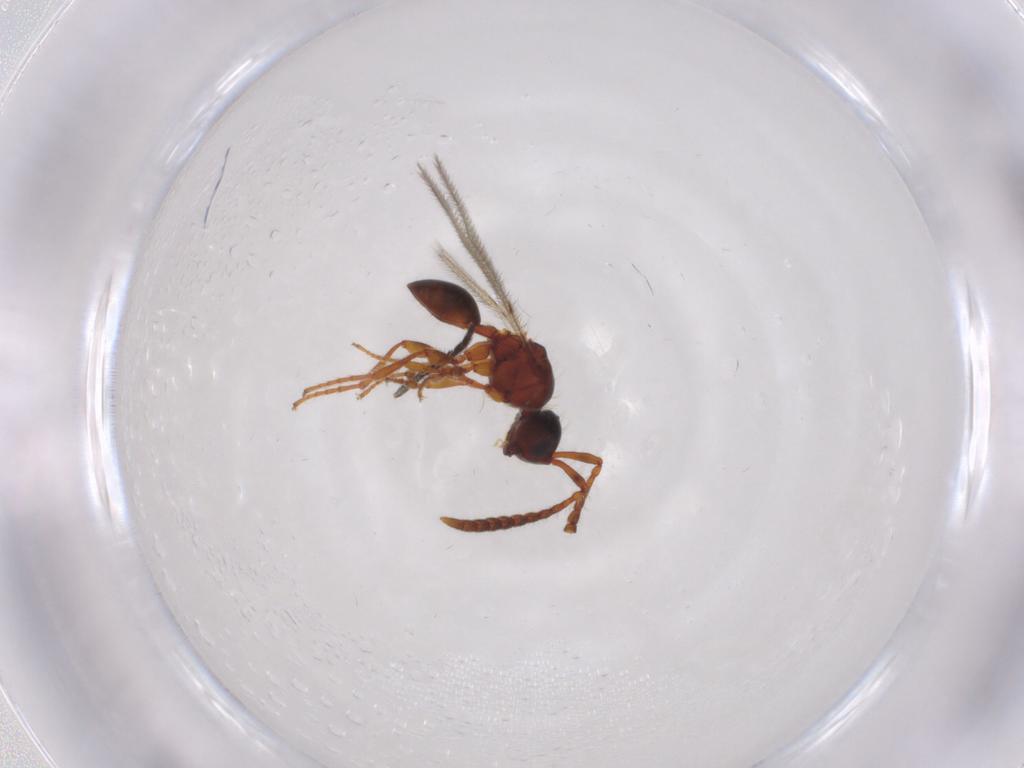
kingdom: Animalia
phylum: Arthropoda
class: Insecta
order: Hymenoptera
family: Diapriidae
